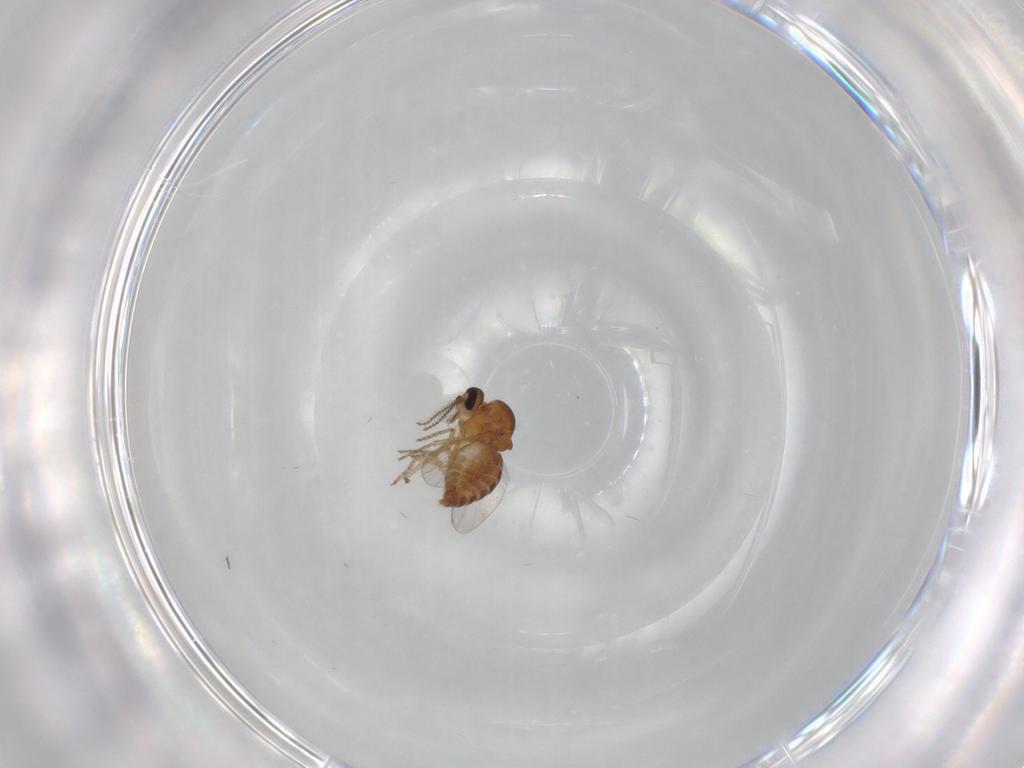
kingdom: Animalia
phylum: Arthropoda
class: Insecta
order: Diptera
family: Ceratopogonidae
